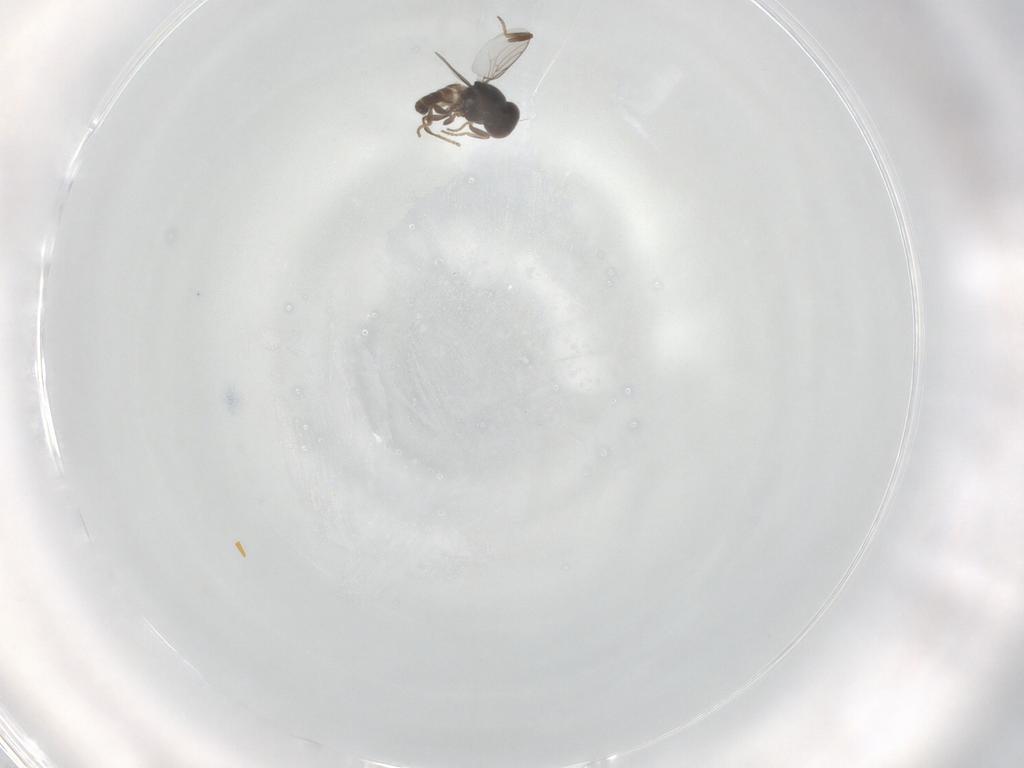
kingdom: Animalia
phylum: Arthropoda
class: Insecta
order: Diptera
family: Chloropidae
